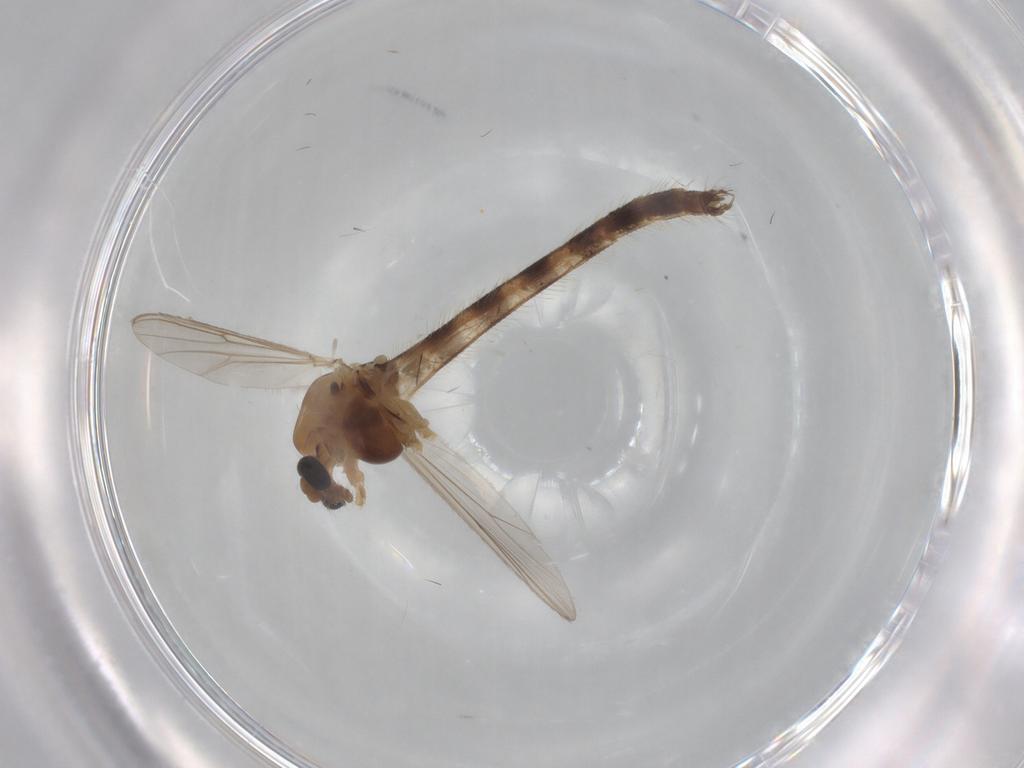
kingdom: Animalia
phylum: Arthropoda
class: Insecta
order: Diptera
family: Chironomidae
